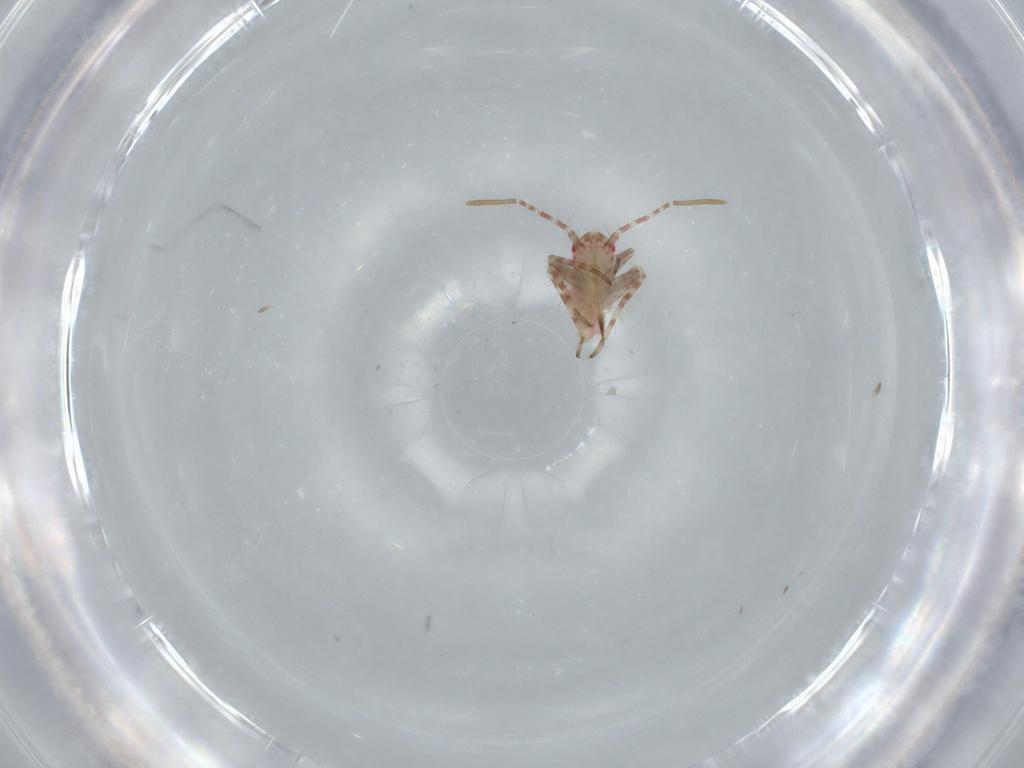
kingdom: Animalia
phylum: Arthropoda
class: Insecta
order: Hemiptera
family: Miridae
